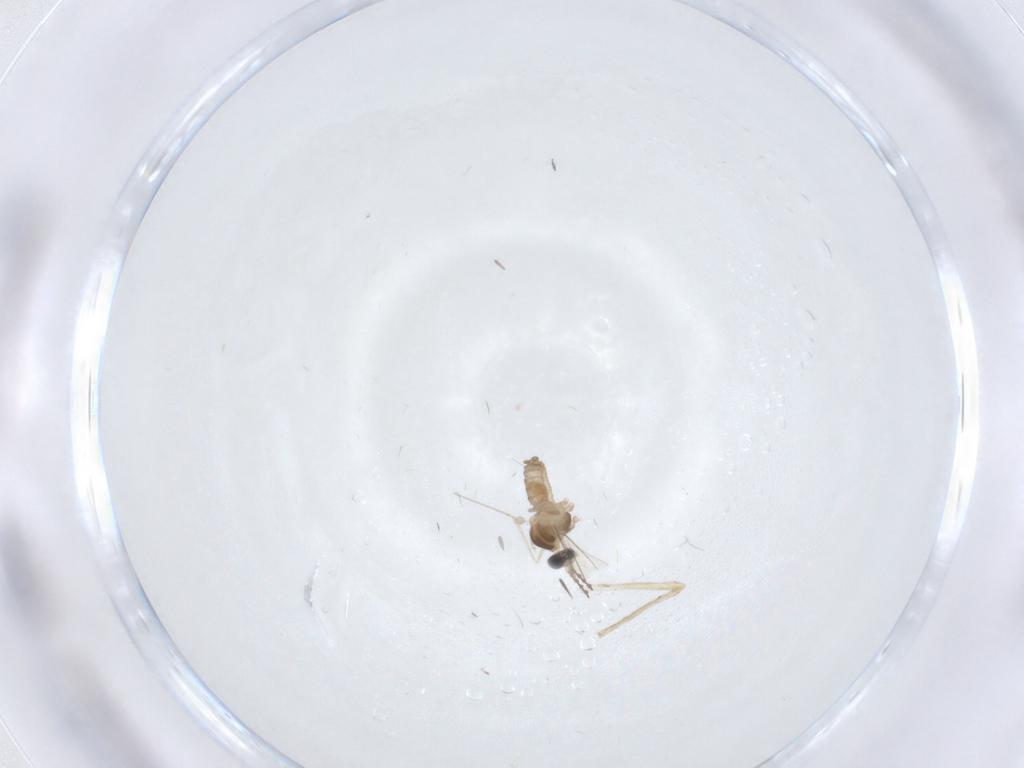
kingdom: Animalia
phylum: Arthropoda
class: Insecta
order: Diptera
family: Cecidomyiidae
